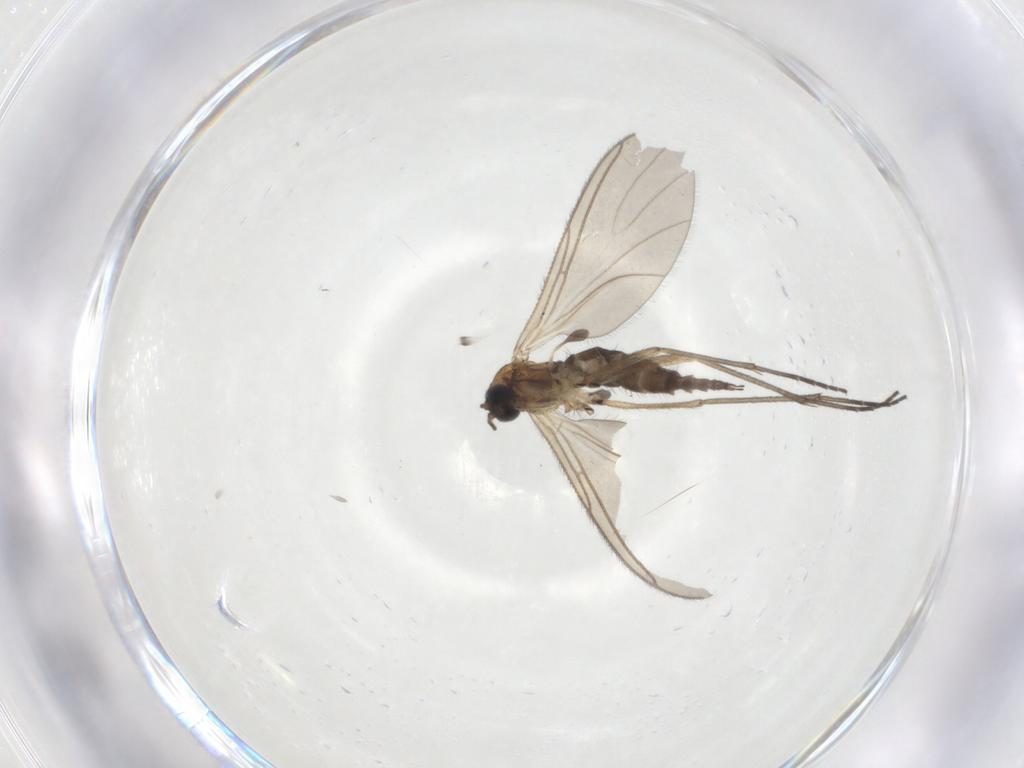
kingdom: Animalia
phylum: Arthropoda
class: Insecta
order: Diptera
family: Sciaridae
